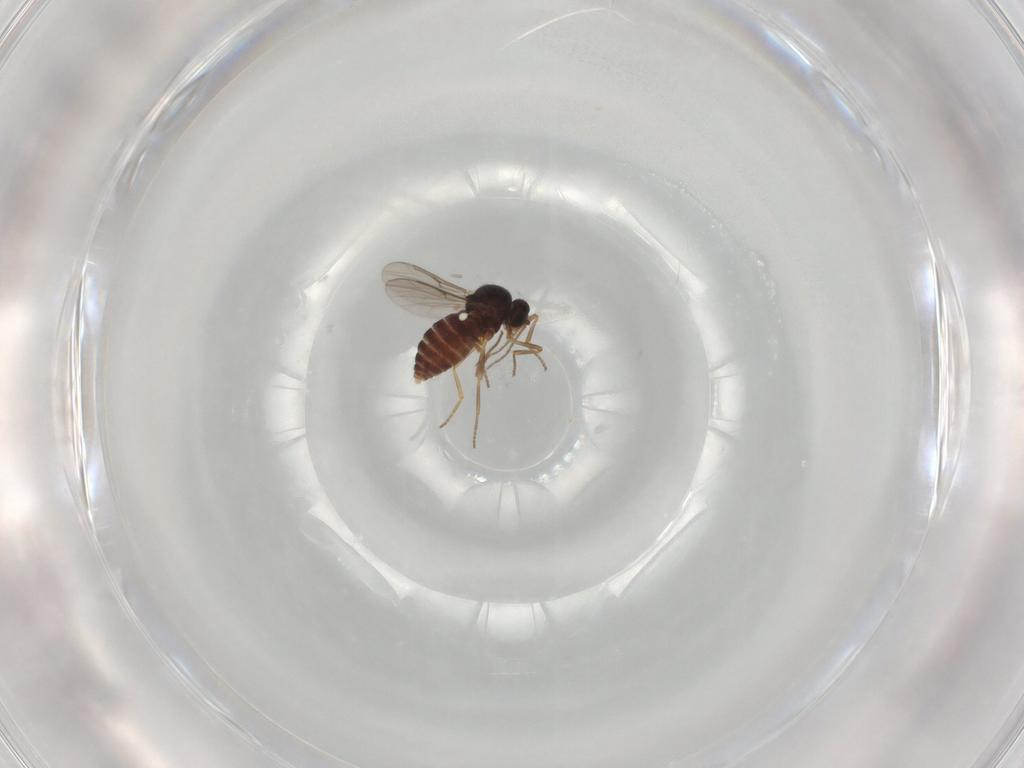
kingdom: Animalia
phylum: Arthropoda
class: Insecta
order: Diptera
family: Ceratopogonidae
